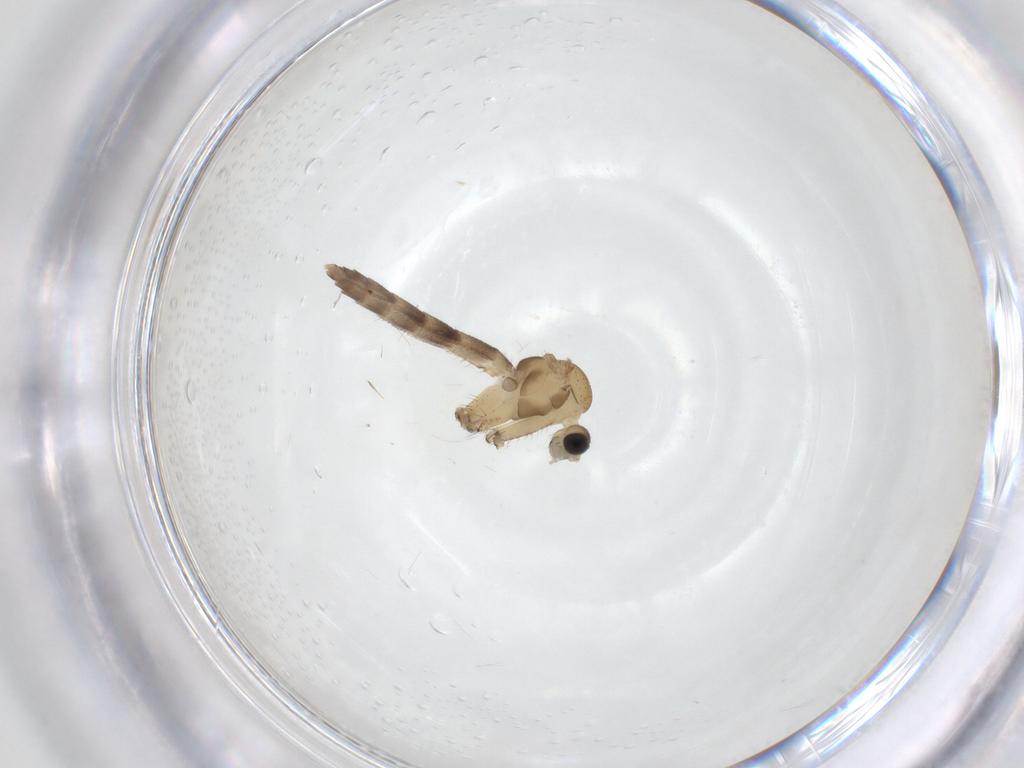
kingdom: Animalia
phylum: Arthropoda
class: Insecta
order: Diptera
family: Keroplatidae
